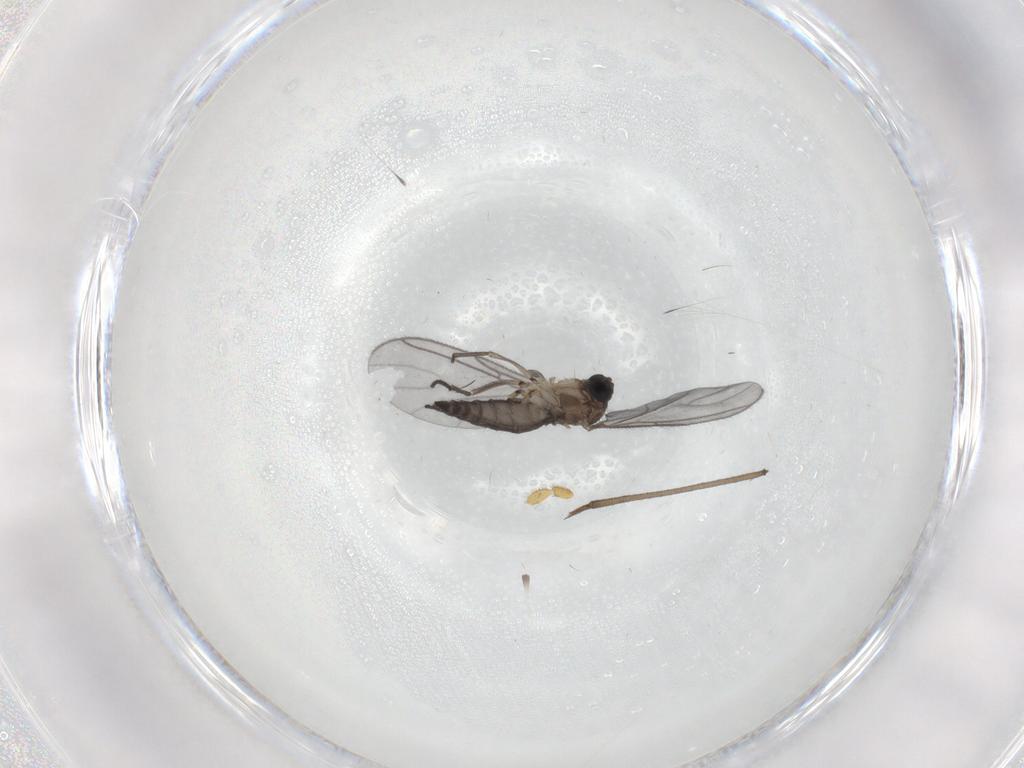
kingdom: Animalia
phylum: Arthropoda
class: Insecta
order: Diptera
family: Sciaridae
